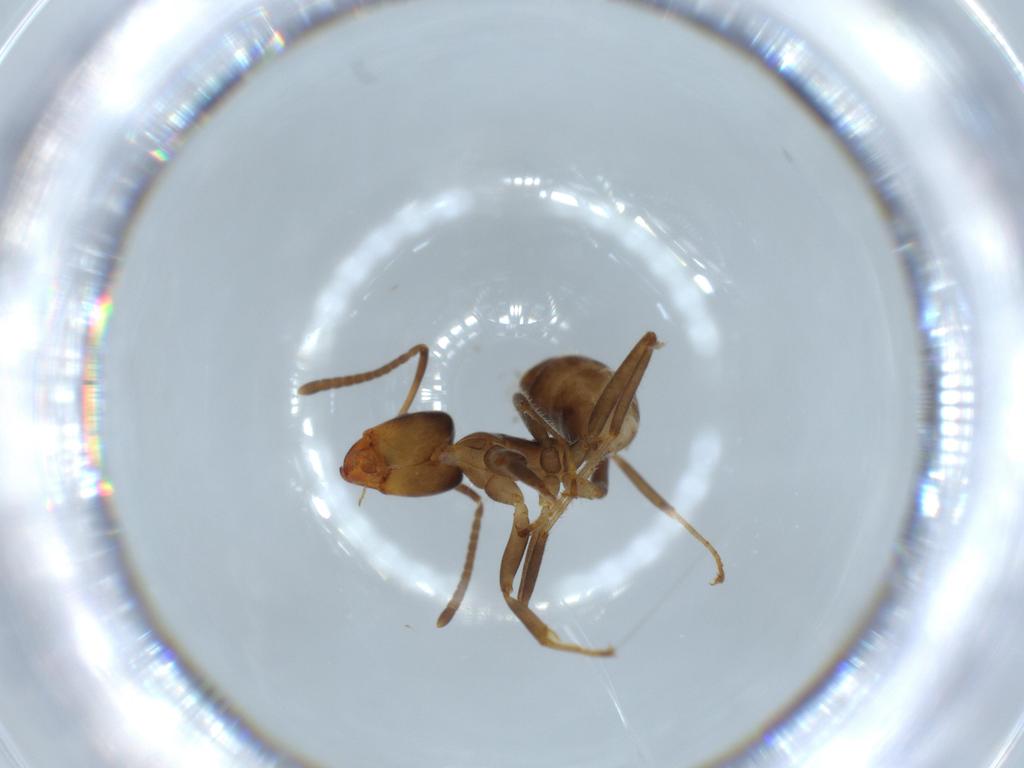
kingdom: Animalia
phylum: Arthropoda
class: Insecta
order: Hymenoptera
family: Formicidae
